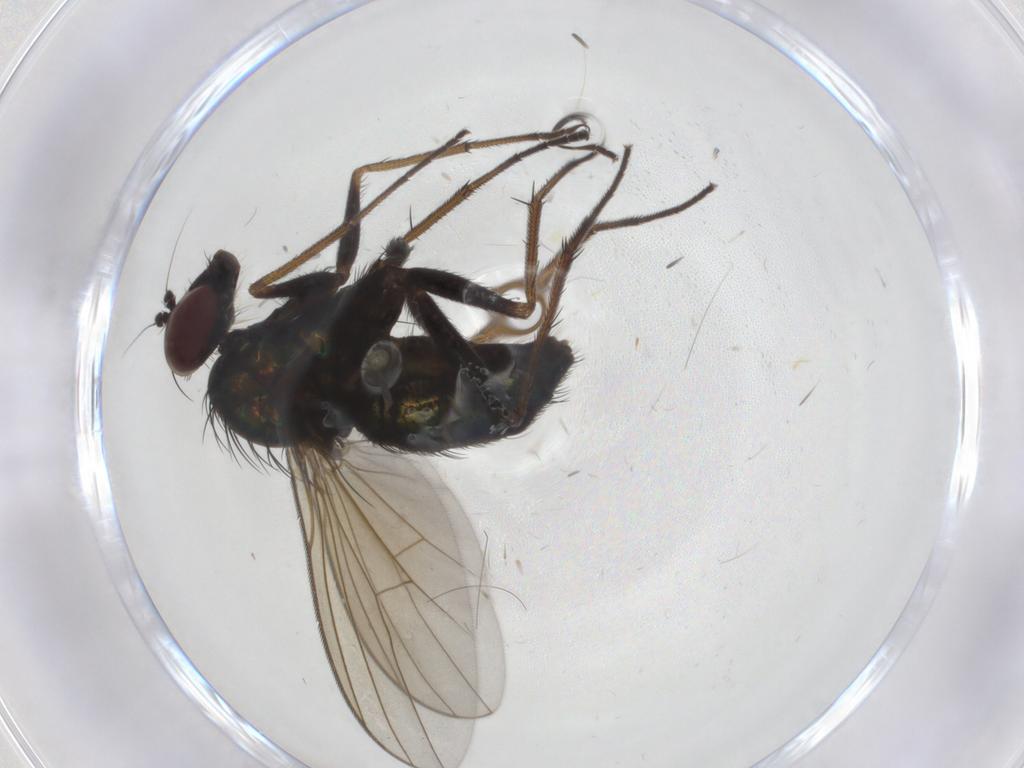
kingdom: Animalia
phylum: Arthropoda
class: Insecta
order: Diptera
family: Dolichopodidae
